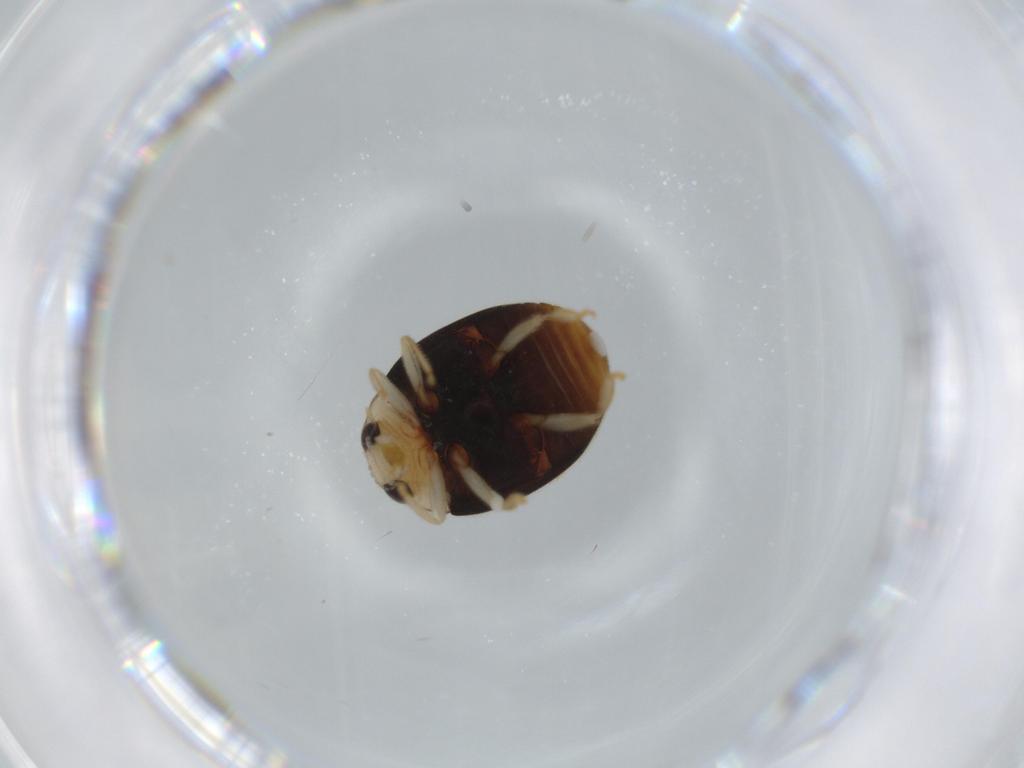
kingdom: Animalia
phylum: Arthropoda
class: Insecta
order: Coleoptera
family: Coccinellidae
